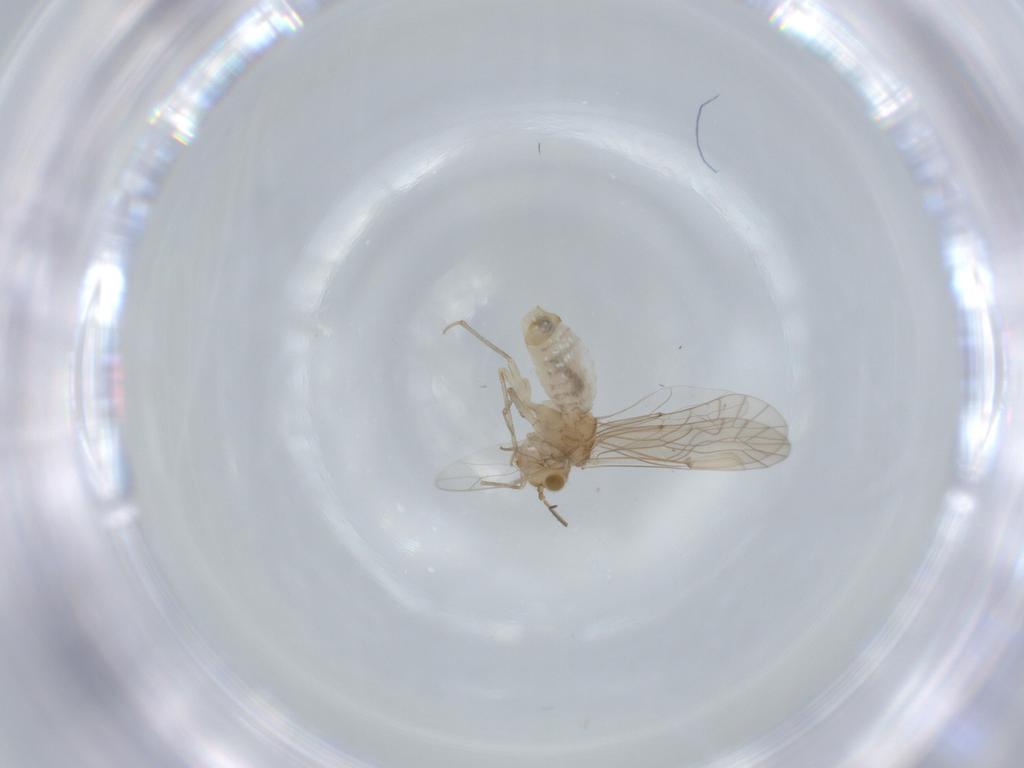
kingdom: Animalia
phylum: Arthropoda
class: Insecta
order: Psocodea
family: Lachesillidae
